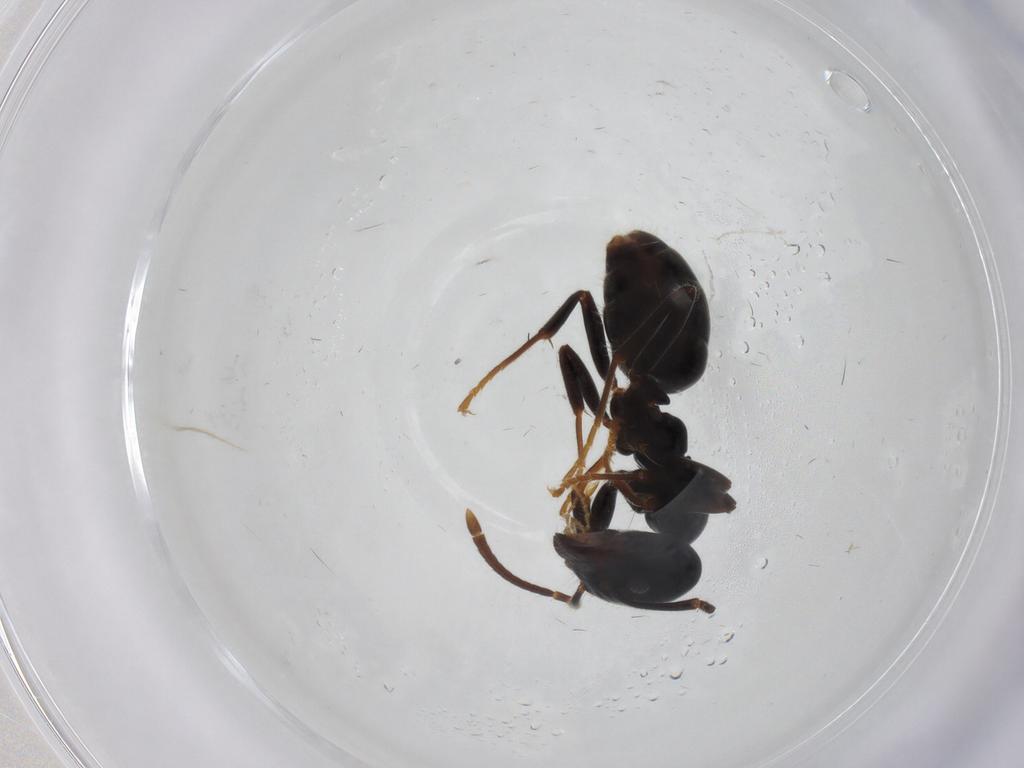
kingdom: Animalia
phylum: Arthropoda
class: Insecta
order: Hymenoptera
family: Formicidae
